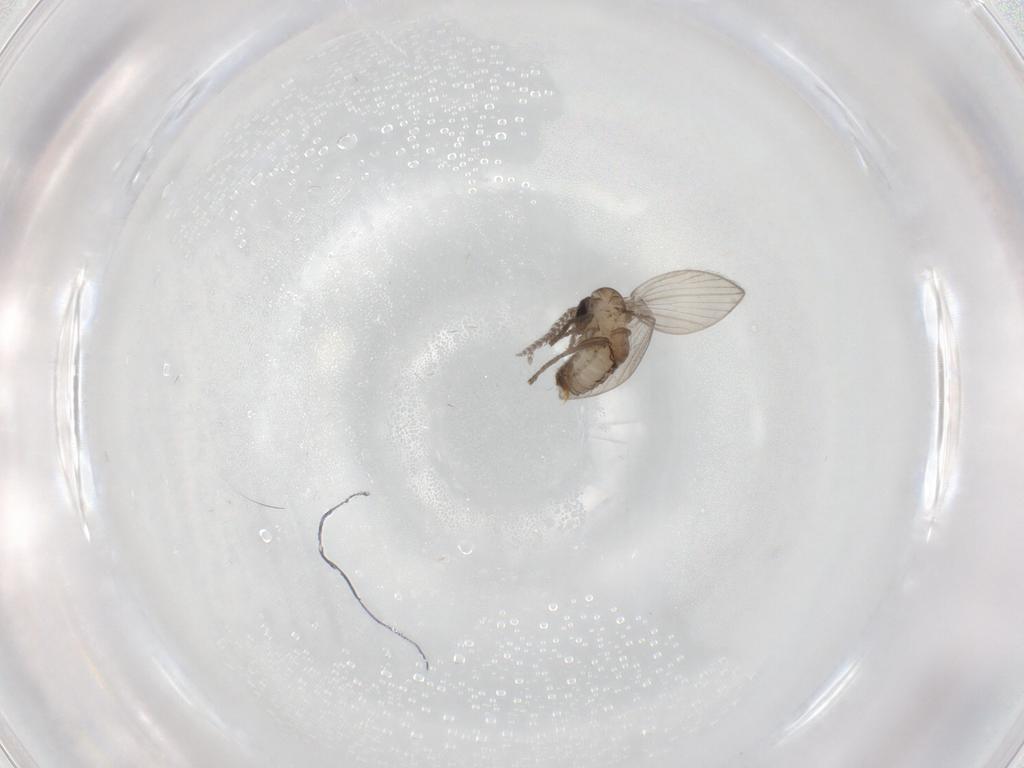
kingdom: Animalia
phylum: Arthropoda
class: Insecta
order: Diptera
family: Psychodidae
